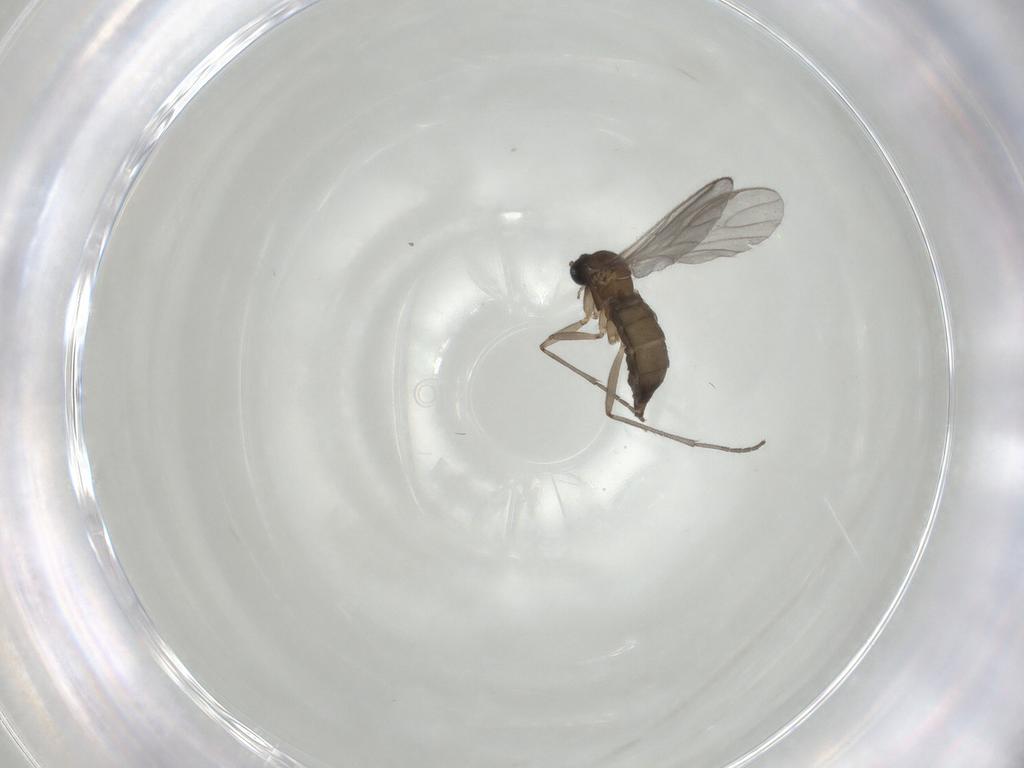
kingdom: Animalia
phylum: Arthropoda
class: Insecta
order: Diptera
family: Sciaridae
